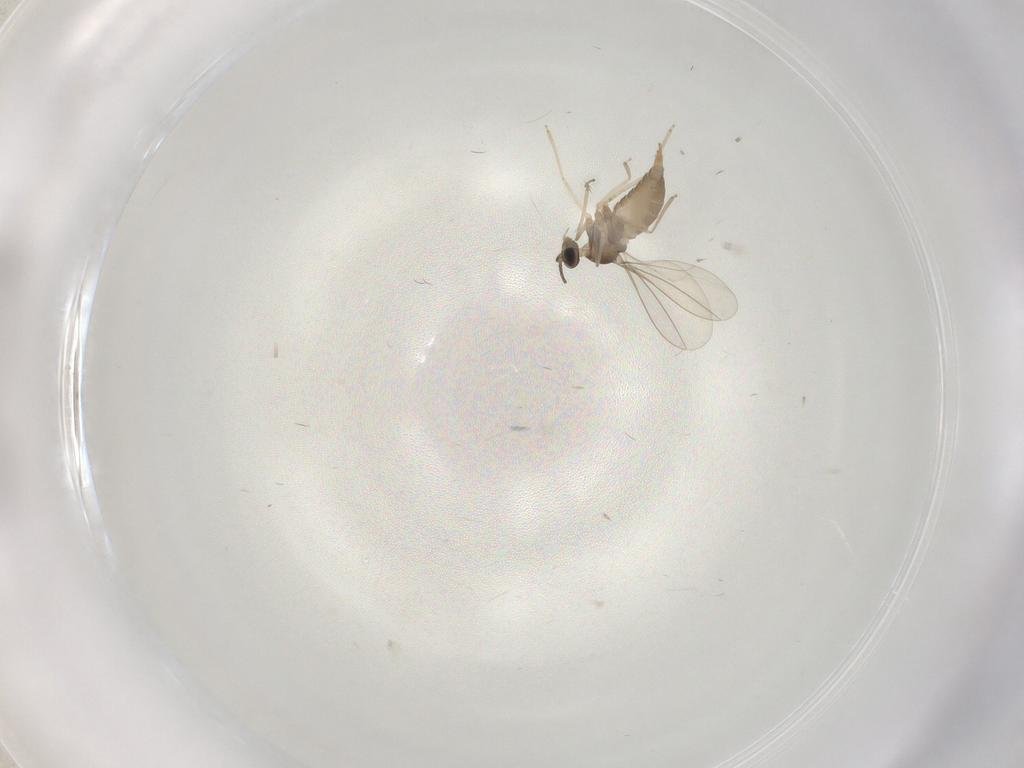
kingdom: Animalia
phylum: Arthropoda
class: Insecta
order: Diptera
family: Cecidomyiidae
